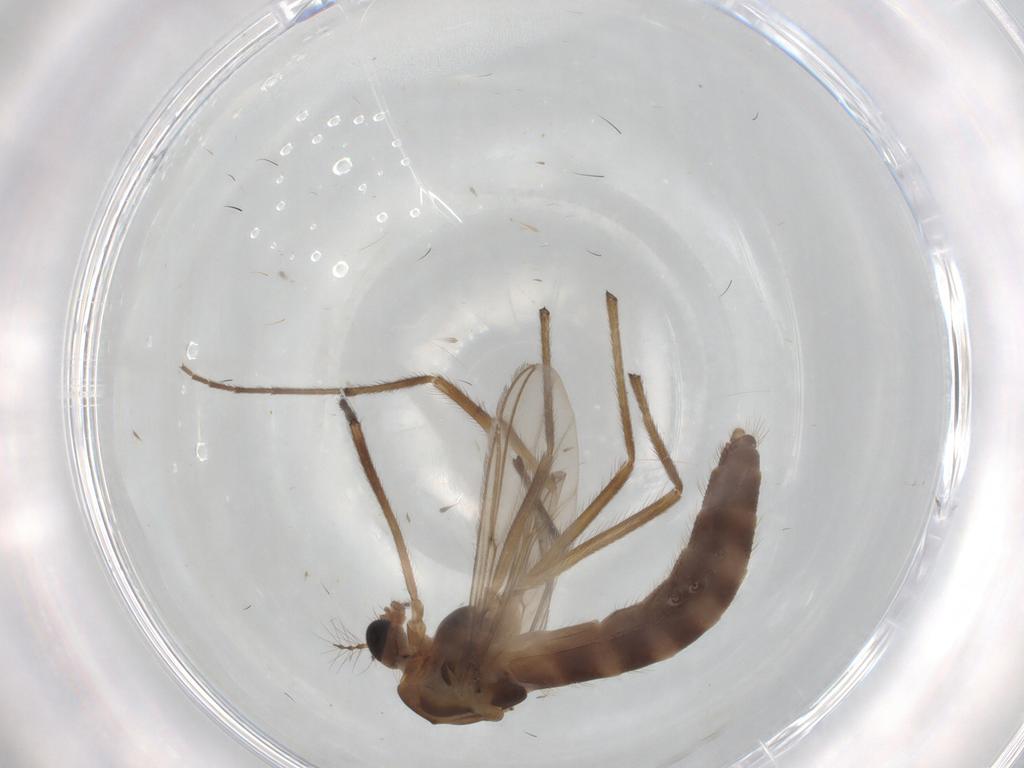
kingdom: Animalia
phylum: Arthropoda
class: Insecta
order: Diptera
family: Chironomidae
